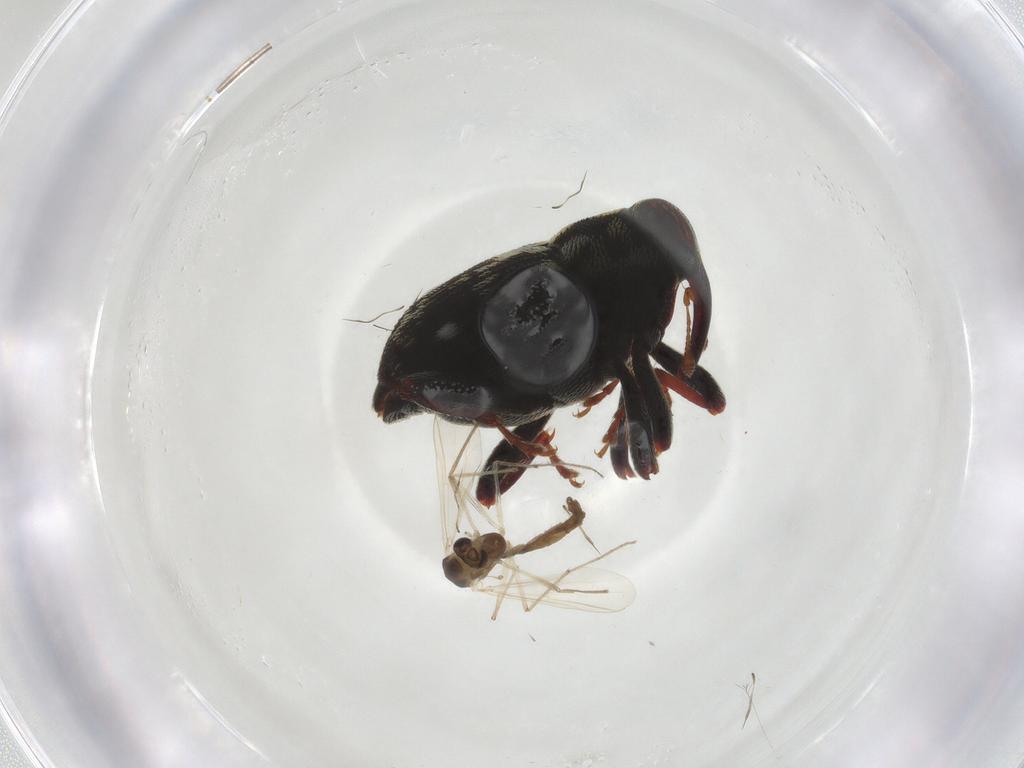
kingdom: Animalia
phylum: Arthropoda
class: Insecta
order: Coleoptera
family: Curculionidae
